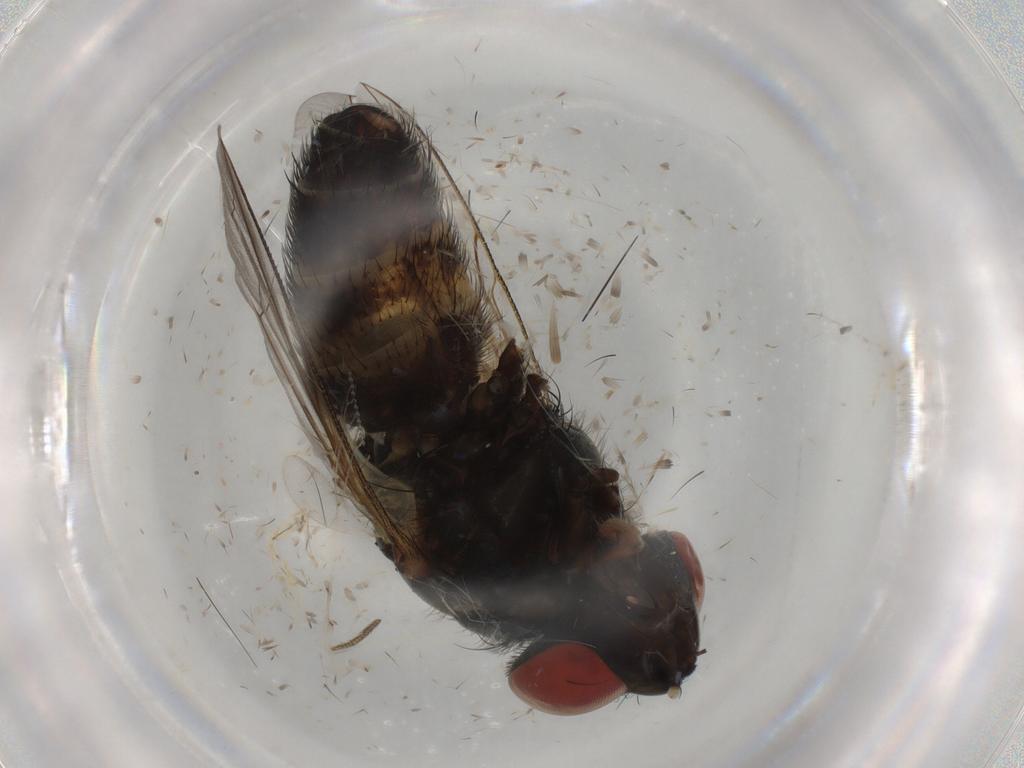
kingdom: Animalia
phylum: Arthropoda
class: Insecta
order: Diptera
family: Sarcophagidae
